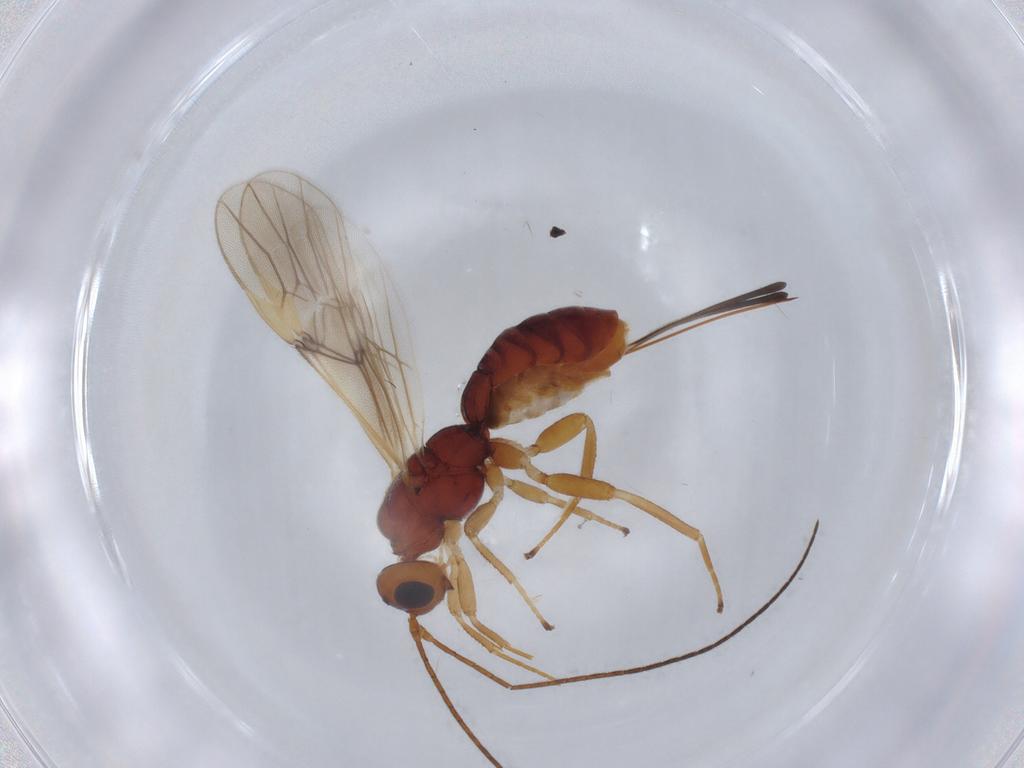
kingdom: Animalia
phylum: Arthropoda
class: Insecta
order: Hymenoptera
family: Braconidae
